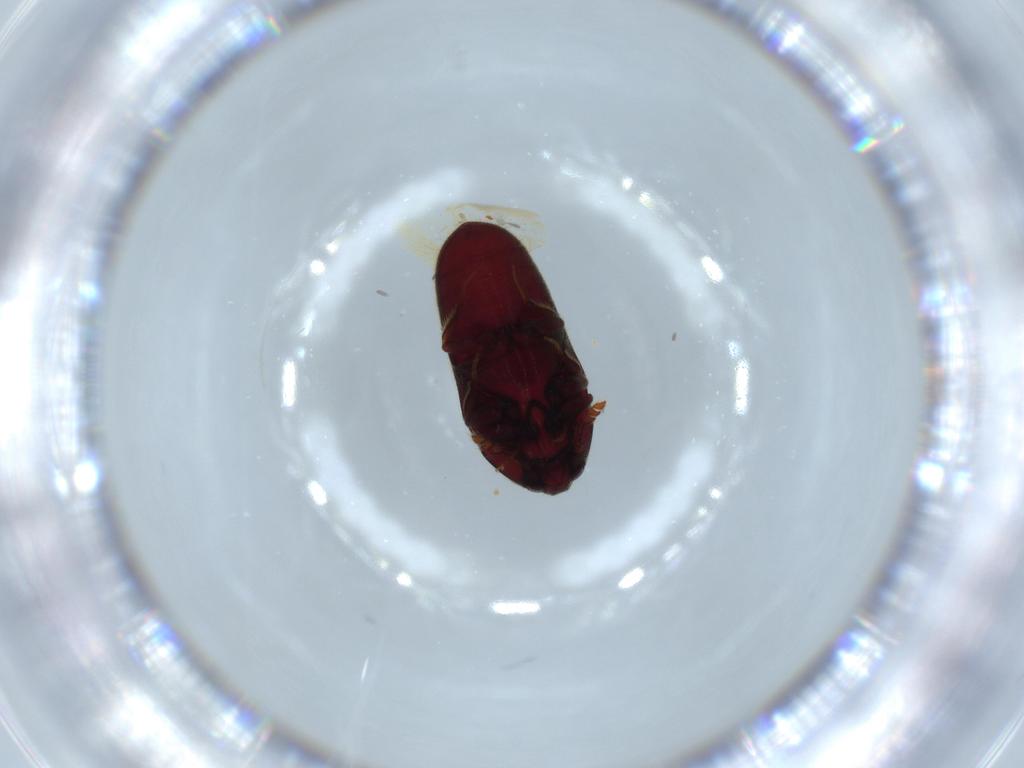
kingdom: Animalia
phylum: Arthropoda
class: Insecta
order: Coleoptera
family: Throscidae
